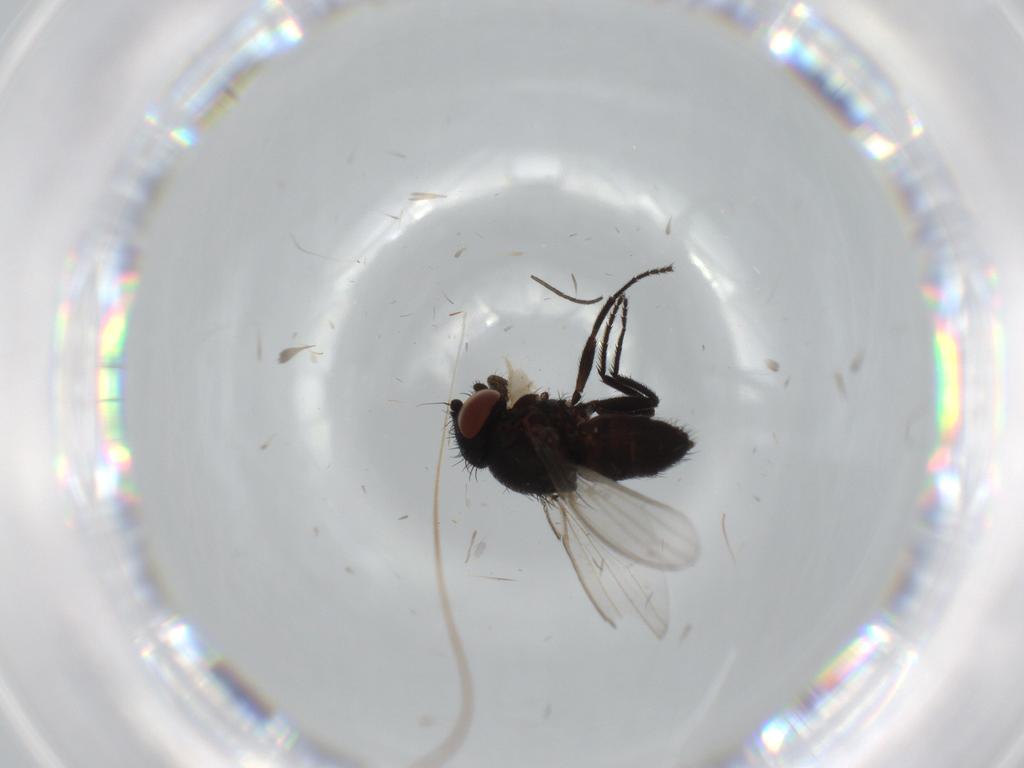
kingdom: Animalia
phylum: Arthropoda
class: Insecta
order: Diptera
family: Milichiidae
